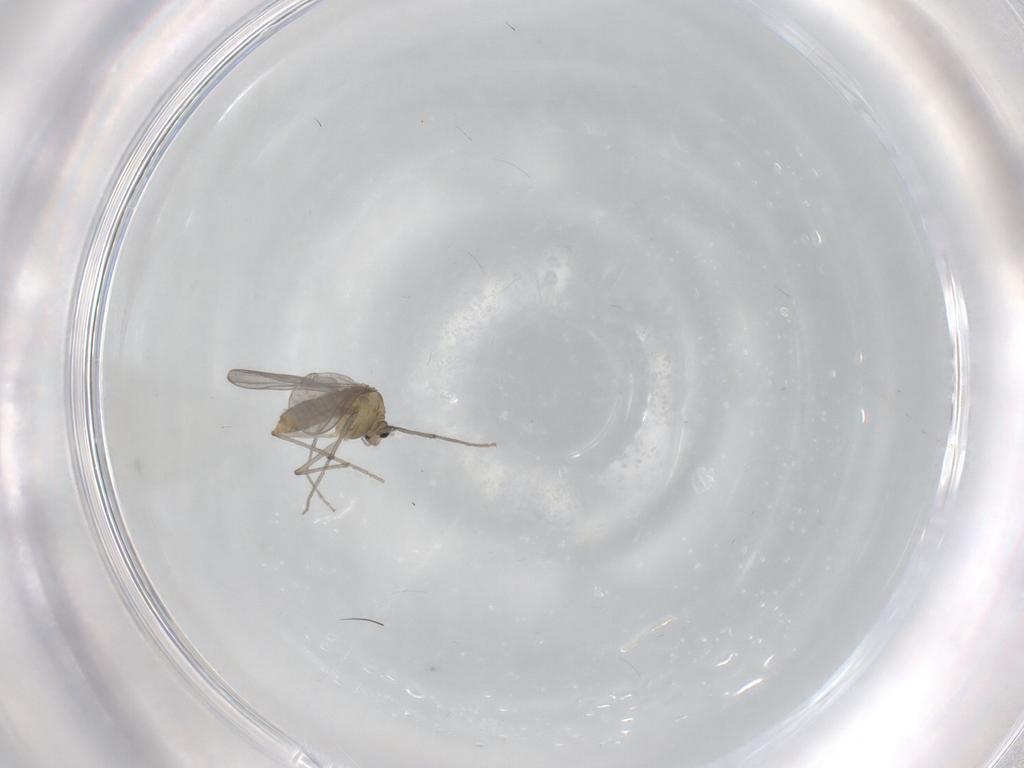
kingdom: Animalia
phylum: Arthropoda
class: Insecta
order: Diptera
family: Chironomidae
